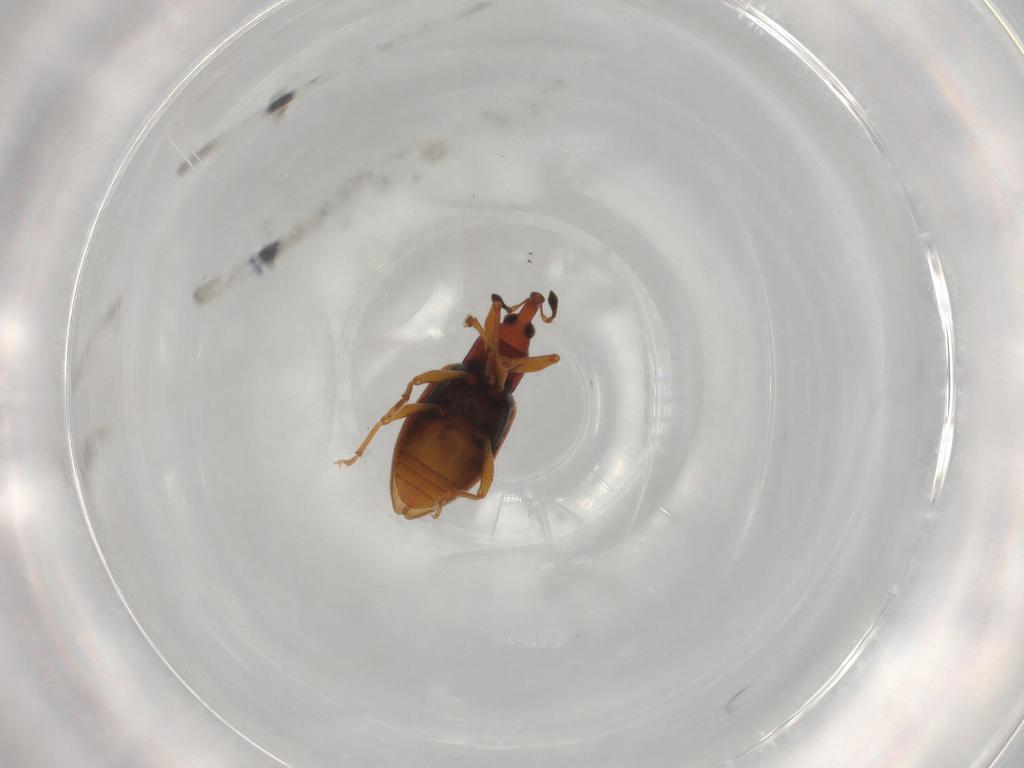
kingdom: Animalia
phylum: Arthropoda
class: Insecta
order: Coleoptera
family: Curculionidae
